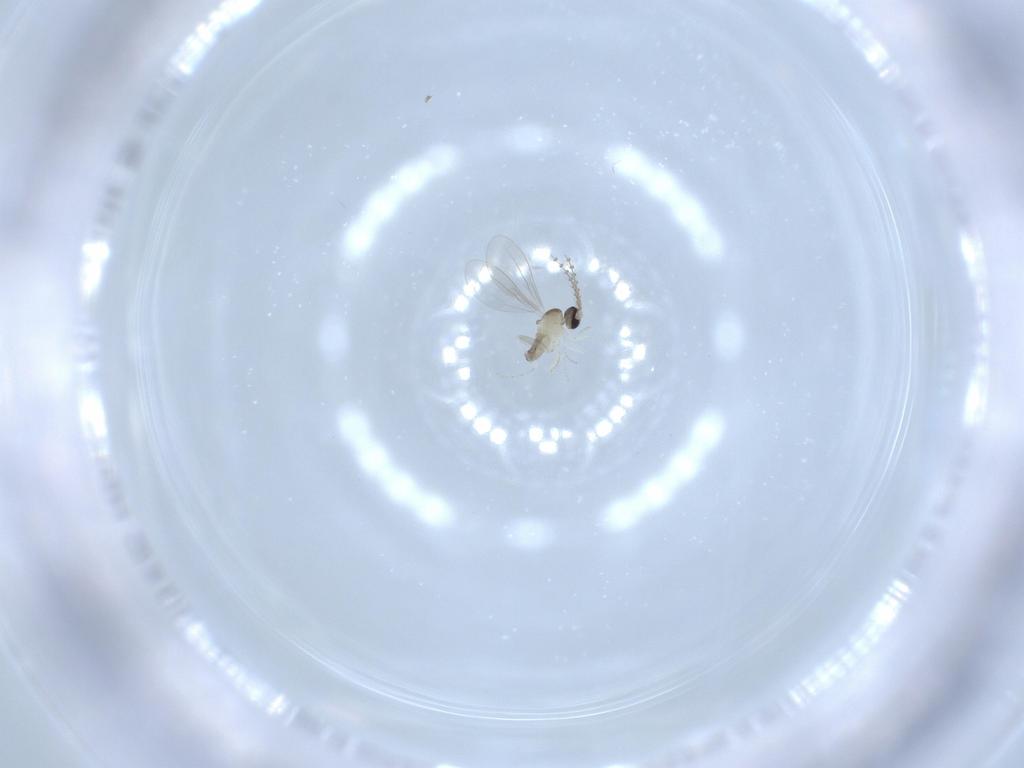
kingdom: Animalia
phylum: Arthropoda
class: Insecta
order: Diptera
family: Cecidomyiidae
